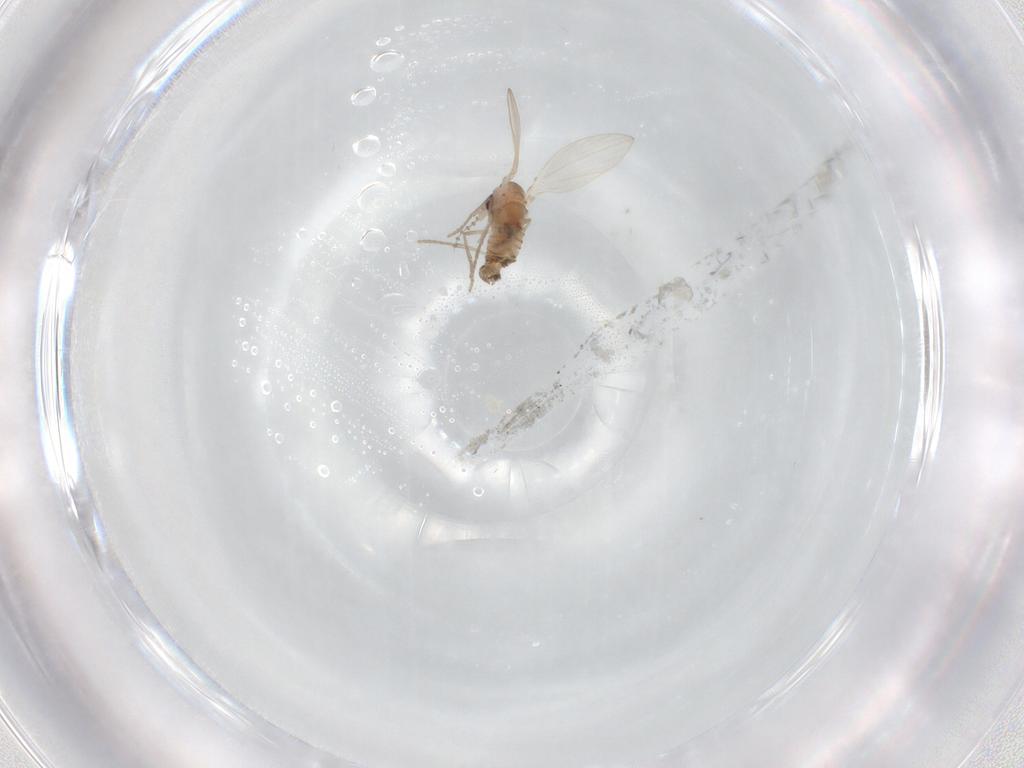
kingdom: Animalia
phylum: Arthropoda
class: Insecta
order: Diptera
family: Psychodidae
